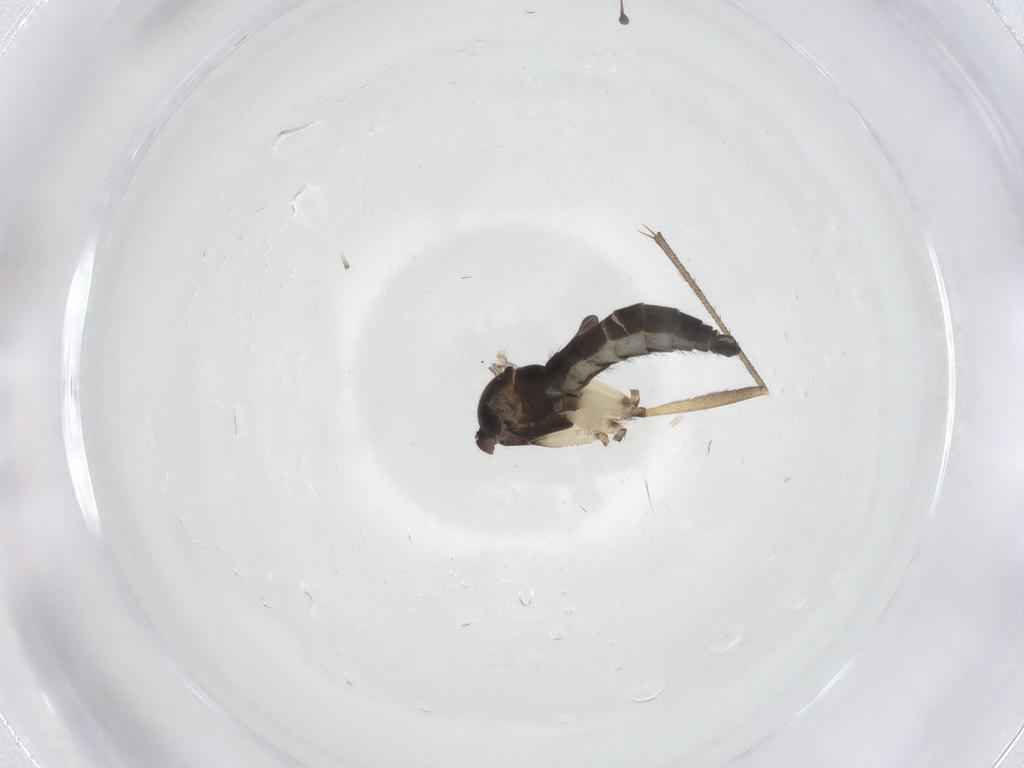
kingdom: Animalia
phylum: Arthropoda
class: Insecta
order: Diptera
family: Sciaridae
